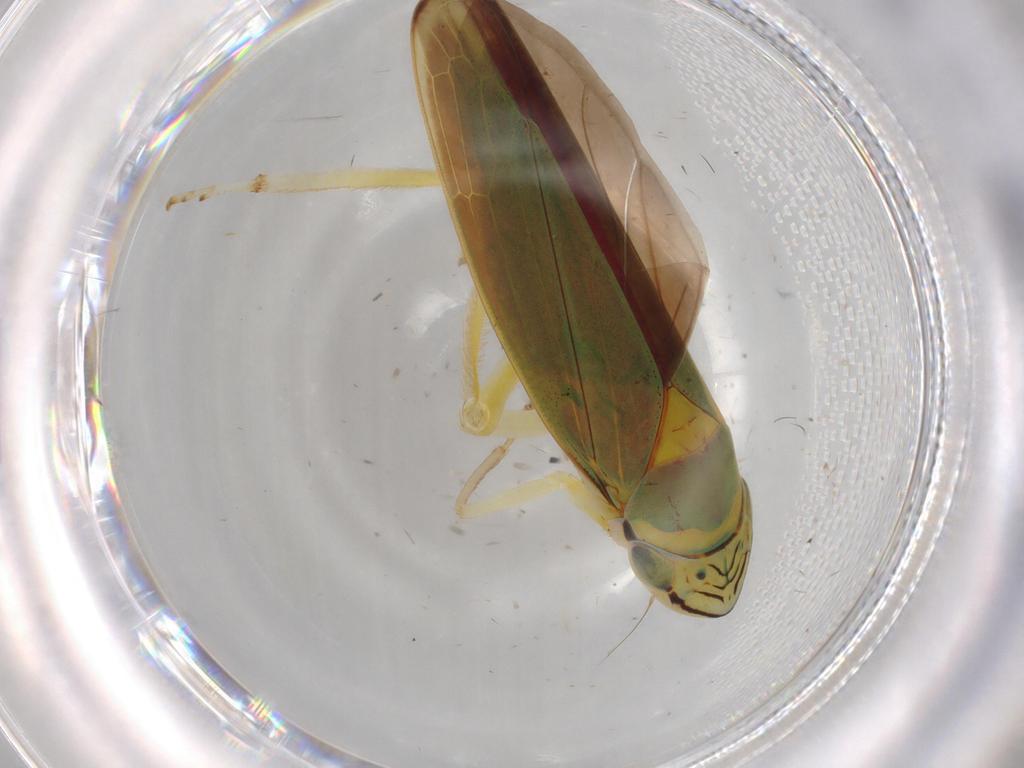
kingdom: Animalia
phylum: Arthropoda
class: Insecta
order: Hemiptera
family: Cicadellidae
